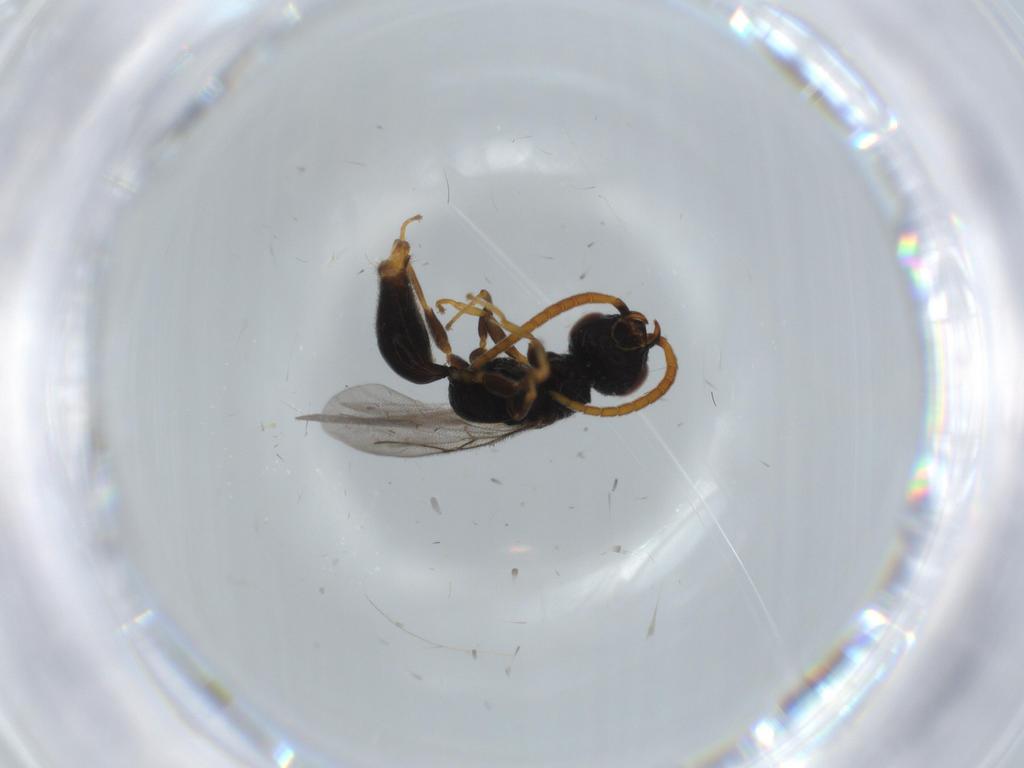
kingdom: Animalia
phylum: Arthropoda
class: Insecta
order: Hymenoptera
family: Bethylidae
